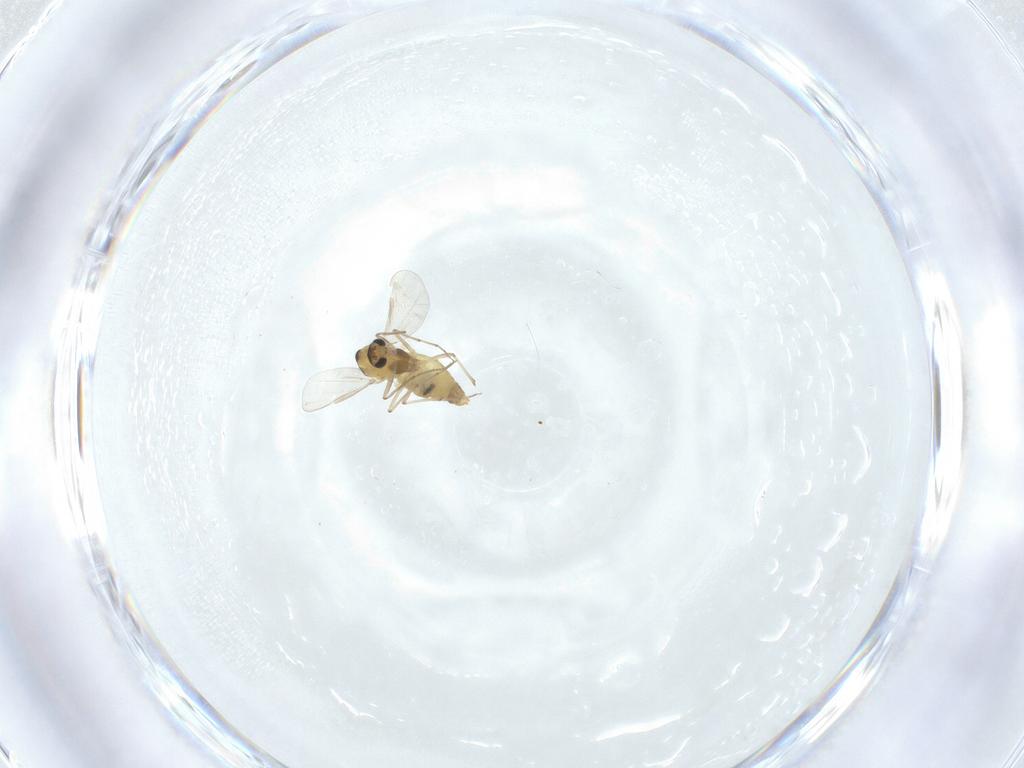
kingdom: Animalia
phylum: Arthropoda
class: Insecta
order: Diptera
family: Chironomidae
